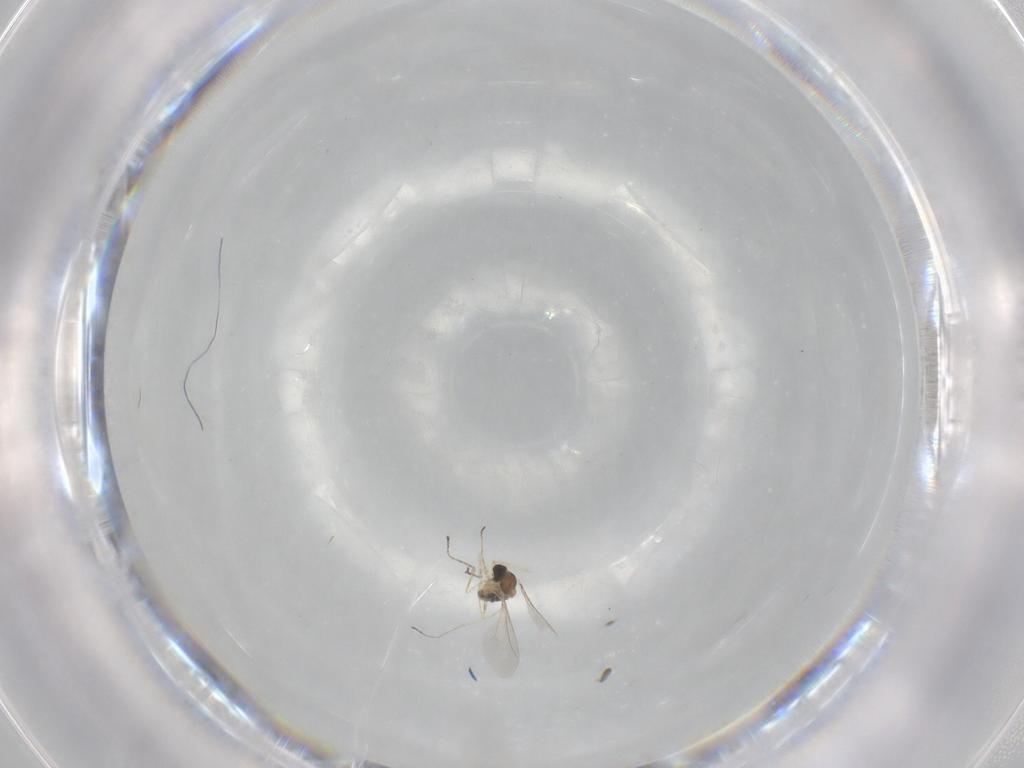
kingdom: Animalia
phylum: Arthropoda
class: Insecta
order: Diptera
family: Cecidomyiidae
